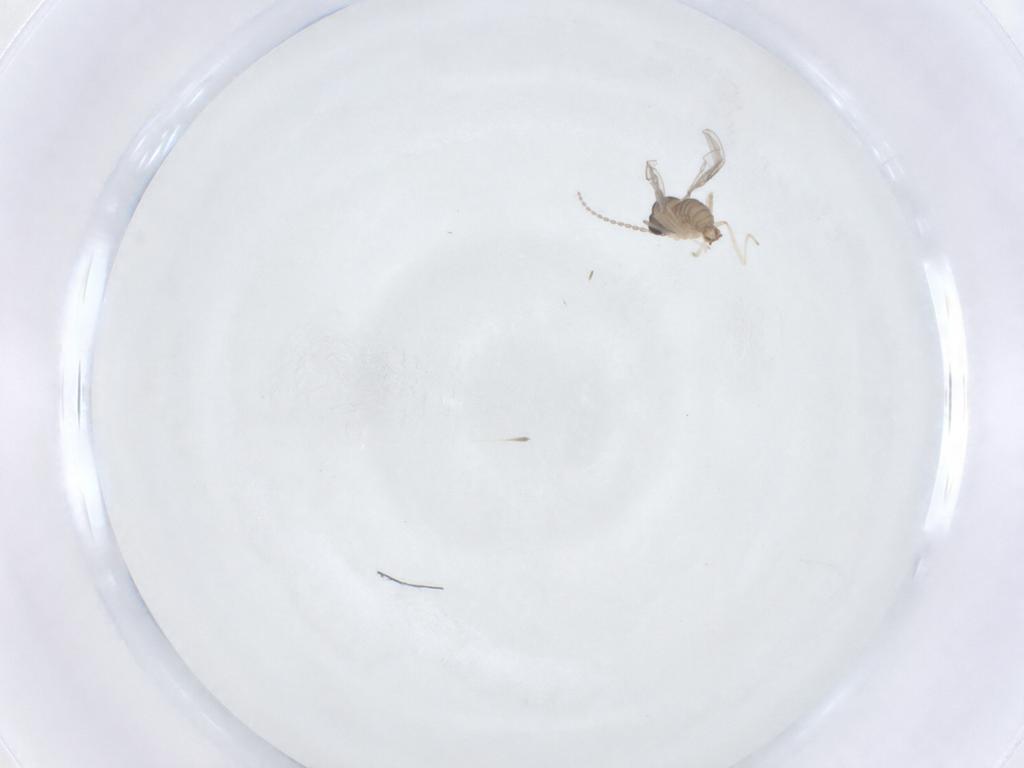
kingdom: Animalia
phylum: Arthropoda
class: Insecta
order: Diptera
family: Cecidomyiidae
